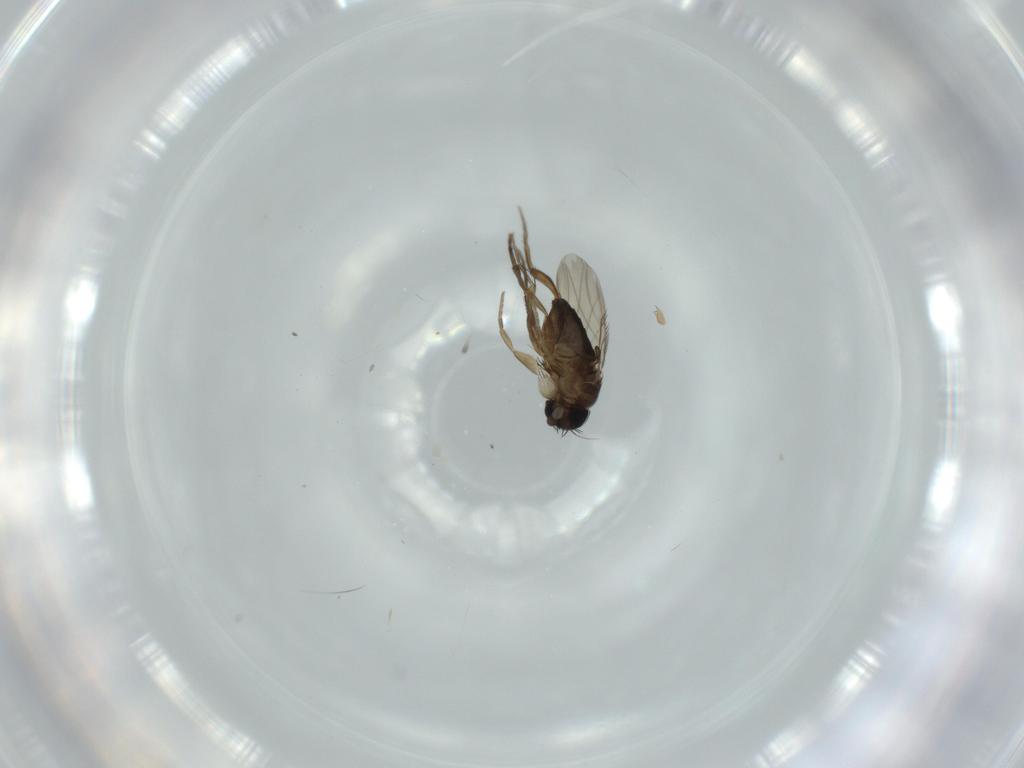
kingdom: Animalia
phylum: Arthropoda
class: Insecta
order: Diptera
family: Phoridae
